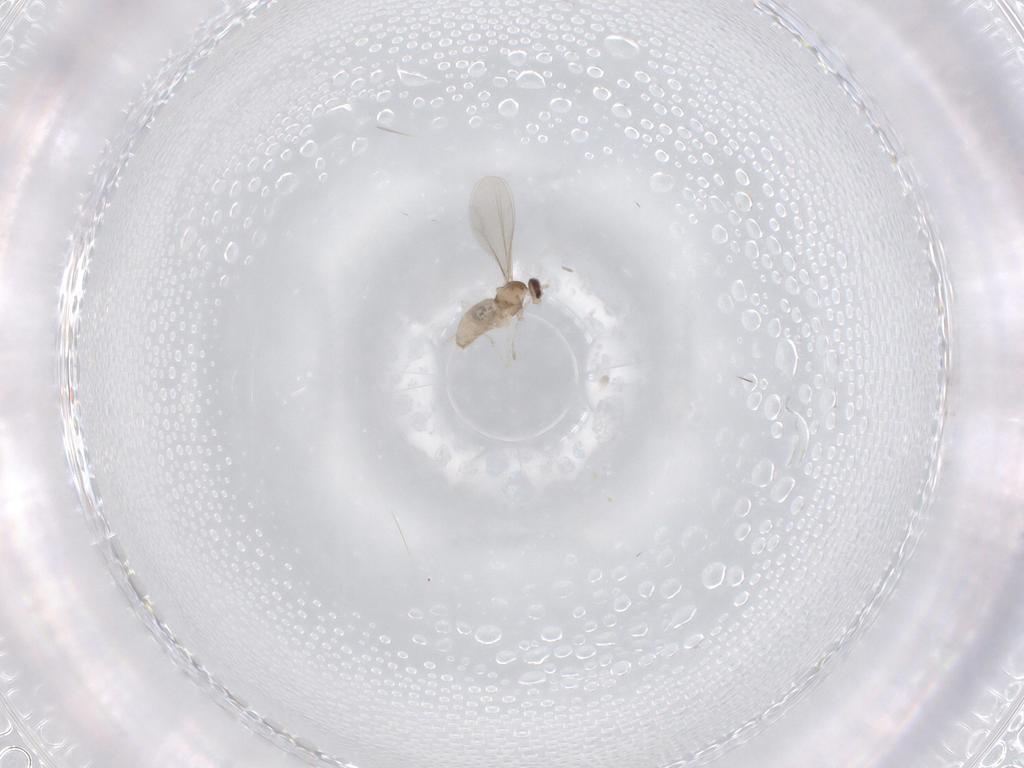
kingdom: Animalia
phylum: Arthropoda
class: Insecta
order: Diptera
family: Cecidomyiidae
